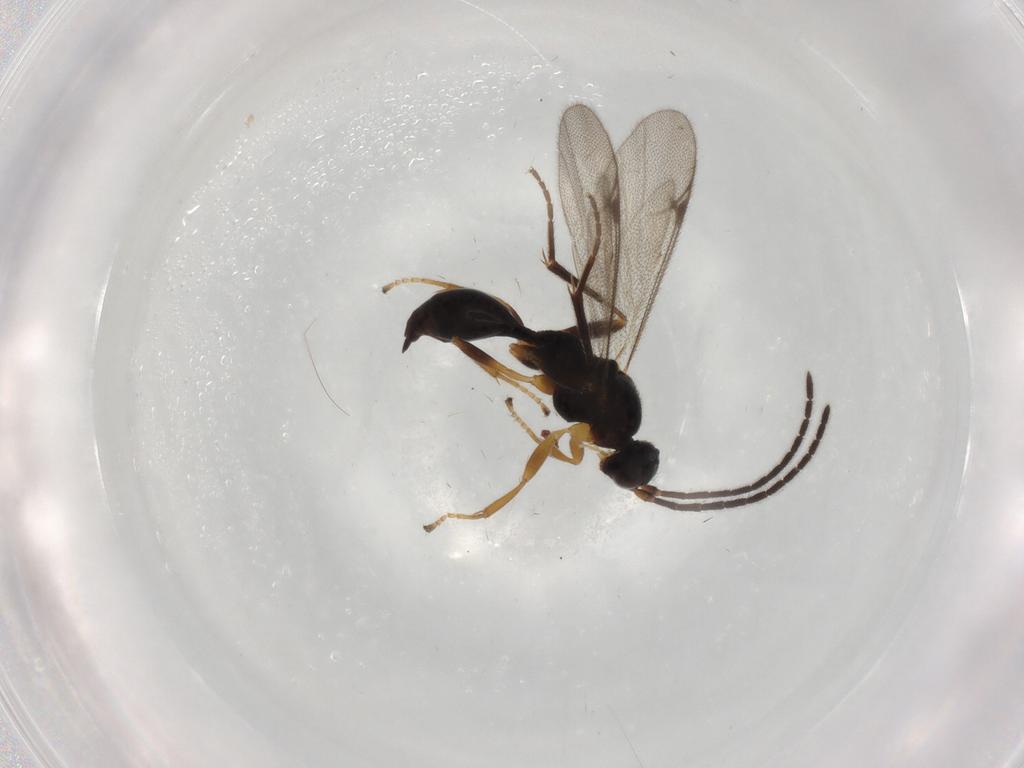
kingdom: Animalia
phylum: Arthropoda
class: Insecta
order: Hymenoptera
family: Proctotrupidae
